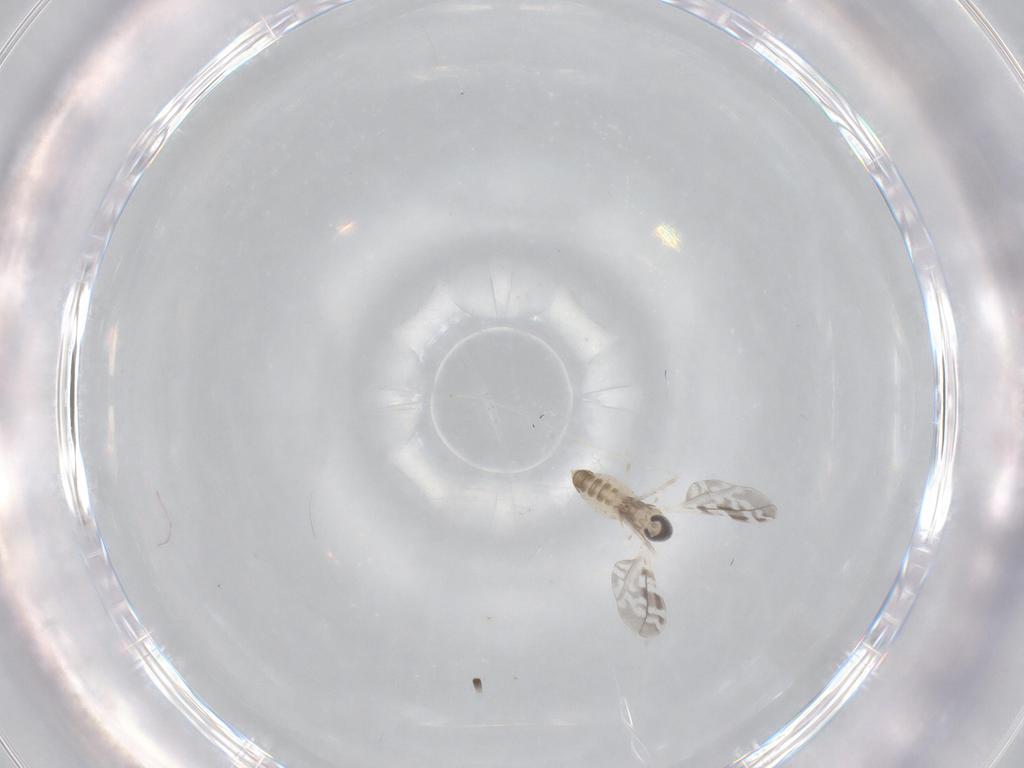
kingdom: Animalia
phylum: Arthropoda
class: Insecta
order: Diptera
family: Cecidomyiidae
